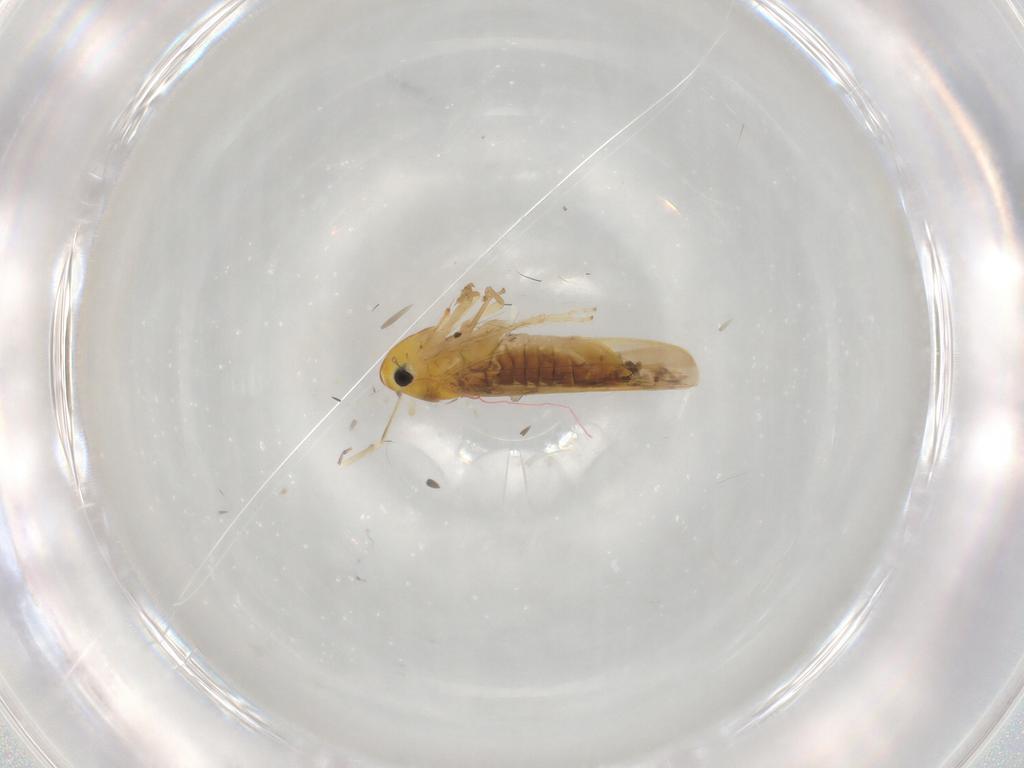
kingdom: Animalia
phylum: Arthropoda
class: Insecta
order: Hemiptera
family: Cicadellidae
